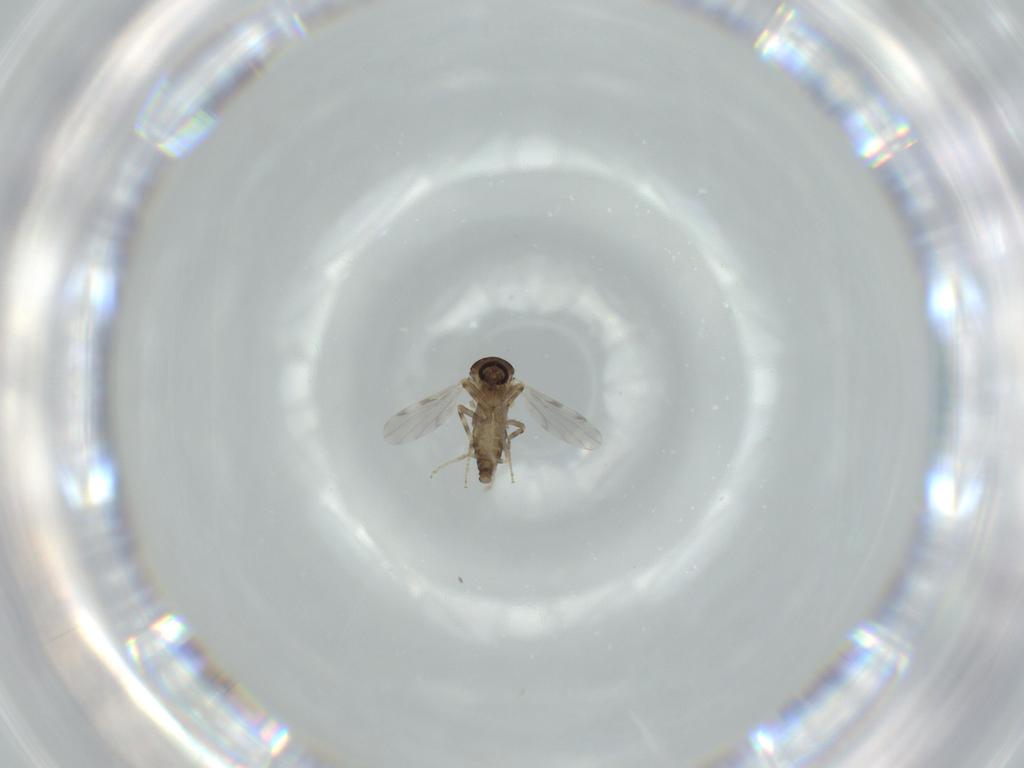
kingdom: Animalia
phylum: Arthropoda
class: Insecta
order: Diptera
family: Ceratopogonidae
